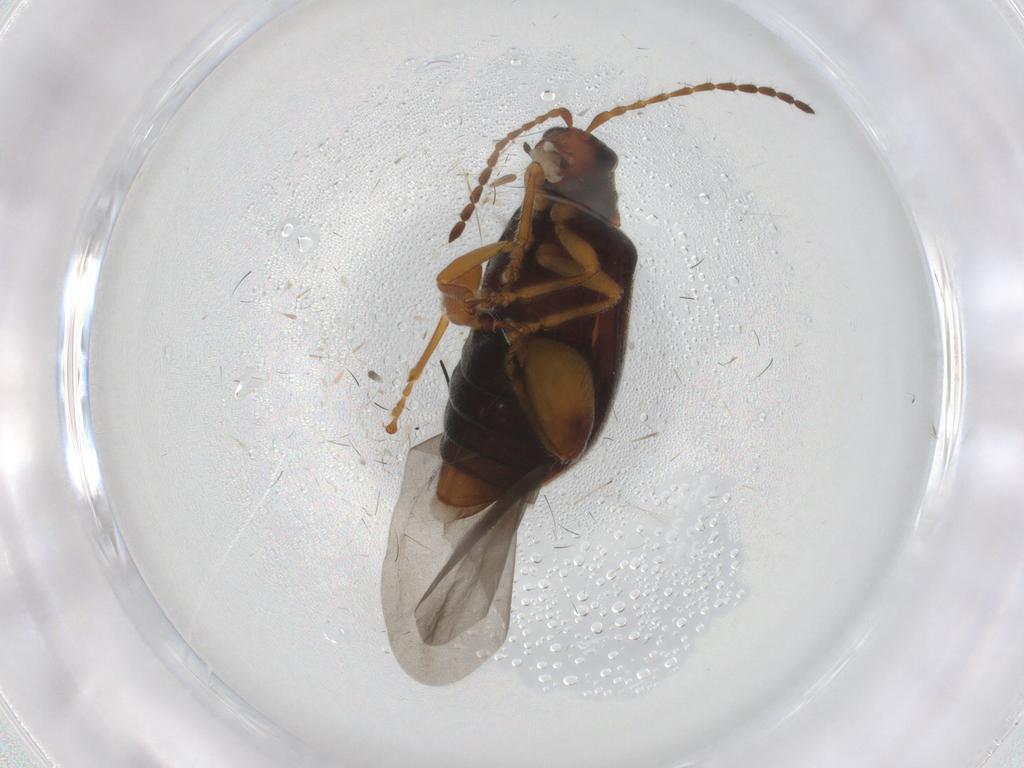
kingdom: Animalia
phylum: Arthropoda
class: Insecta
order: Coleoptera
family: Chrysomelidae
